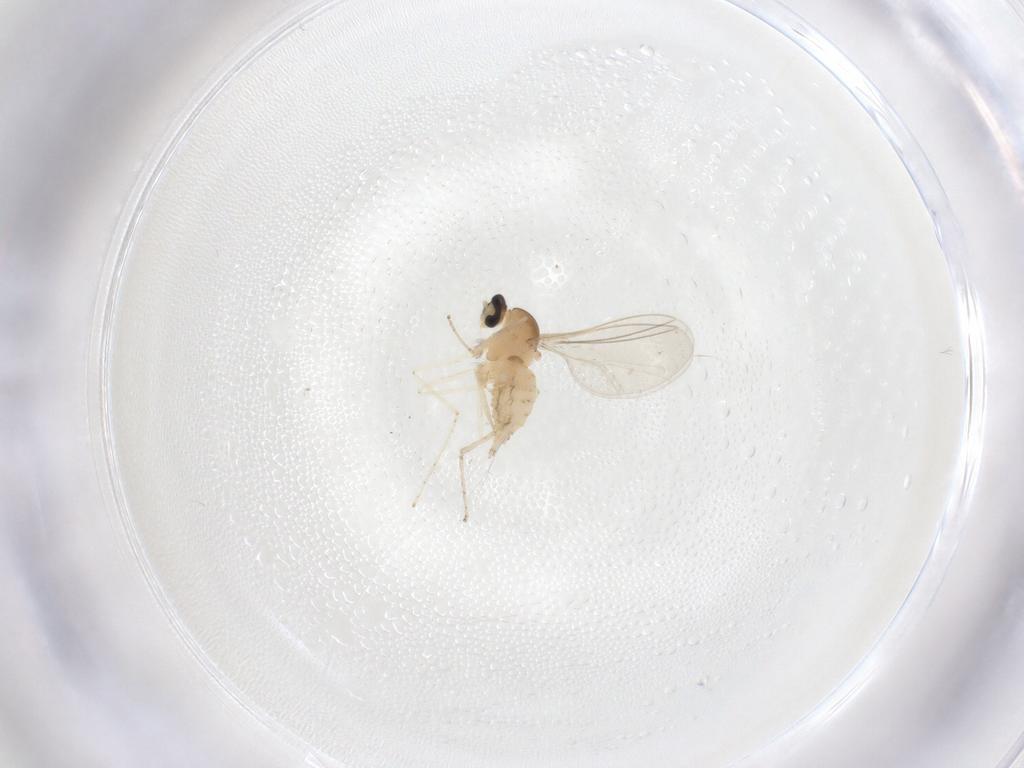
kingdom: Animalia
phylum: Arthropoda
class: Insecta
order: Diptera
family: Cecidomyiidae
